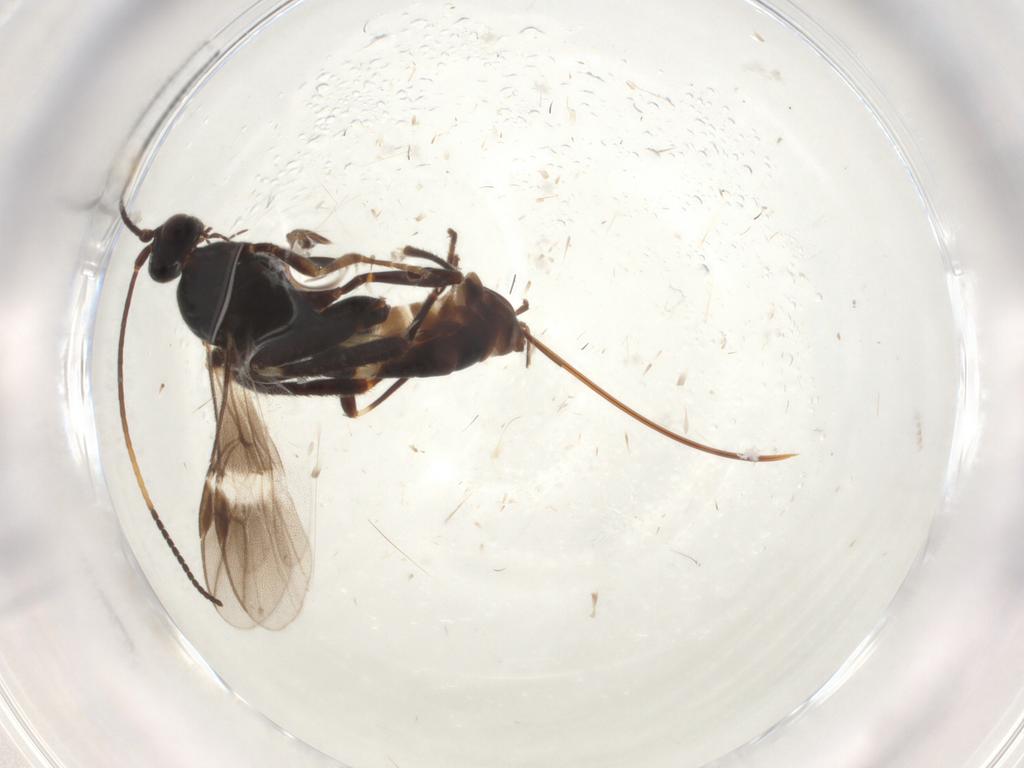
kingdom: Animalia
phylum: Arthropoda
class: Insecta
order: Hymenoptera
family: Braconidae
